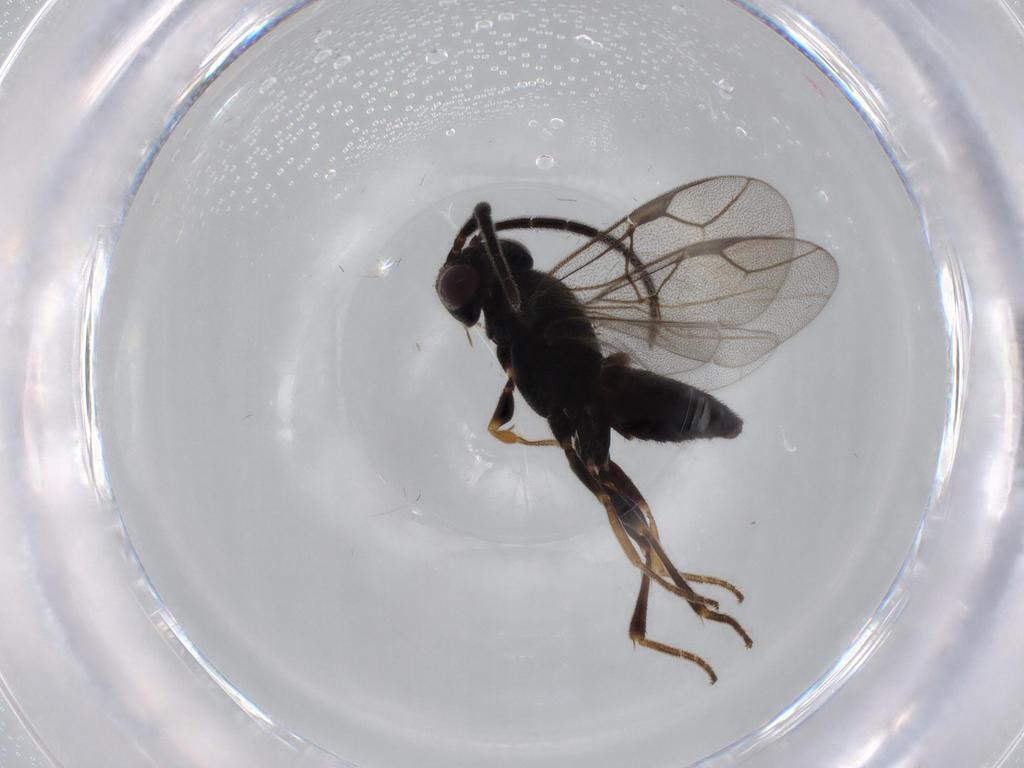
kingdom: Animalia
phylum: Arthropoda
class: Insecta
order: Hymenoptera
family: Dryinidae
